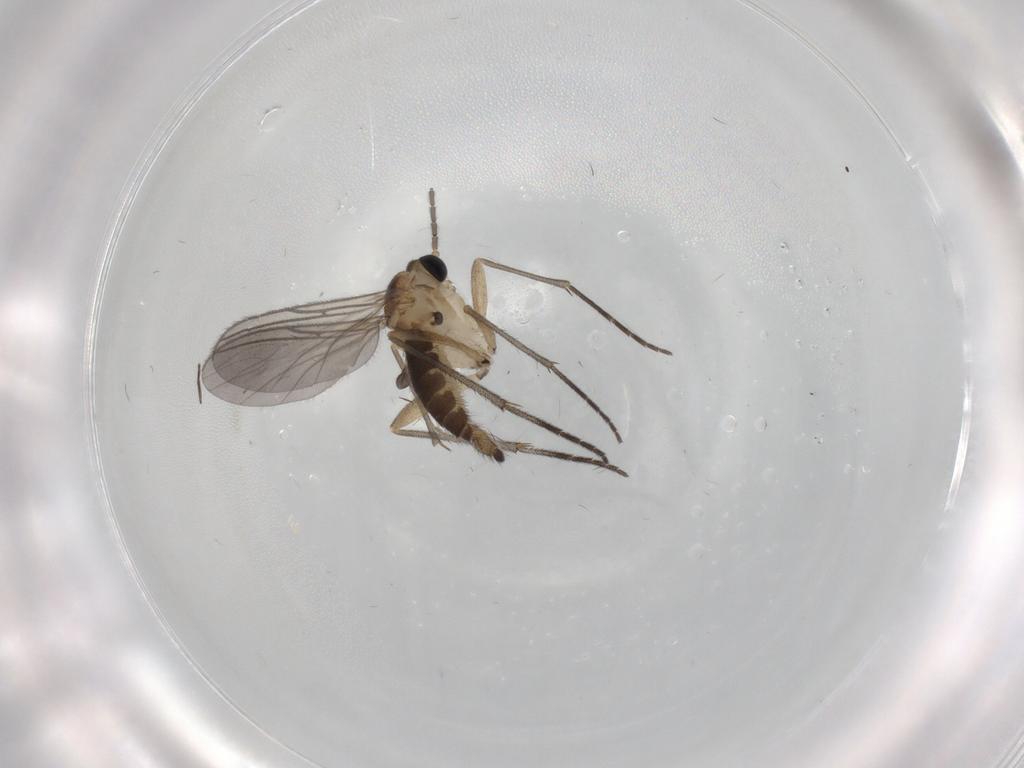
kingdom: Animalia
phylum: Arthropoda
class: Insecta
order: Diptera
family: Sciaridae
